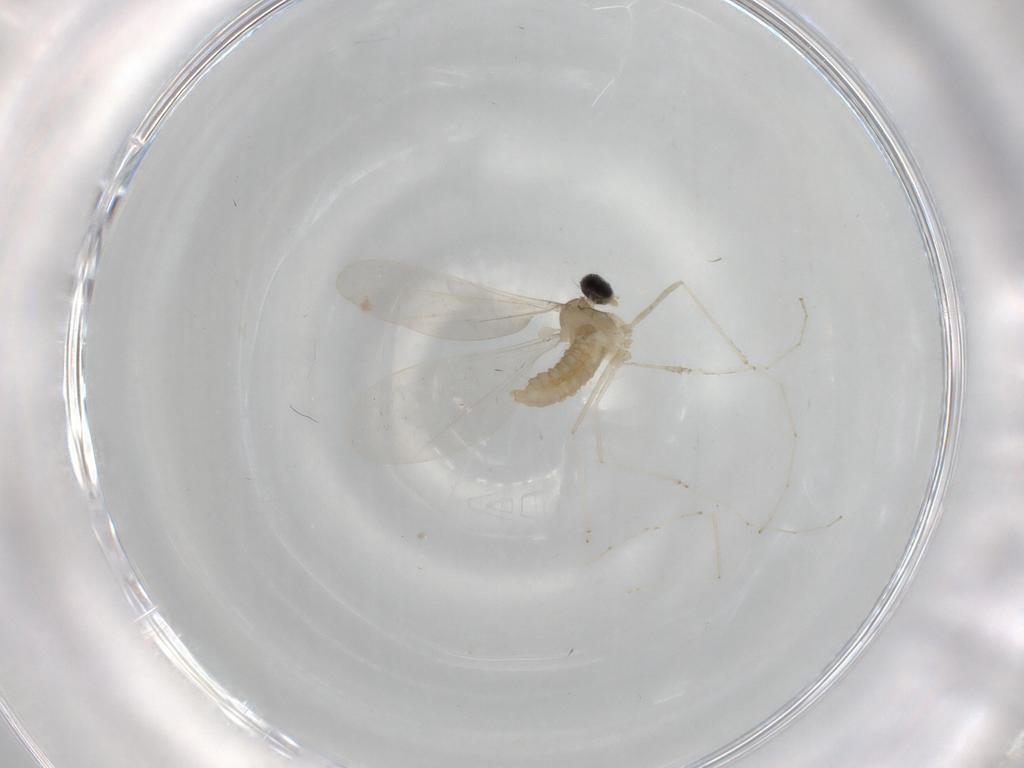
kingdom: Animalia
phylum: Arthropoda
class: Insecta
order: Diptera
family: Cecidomyiidae
